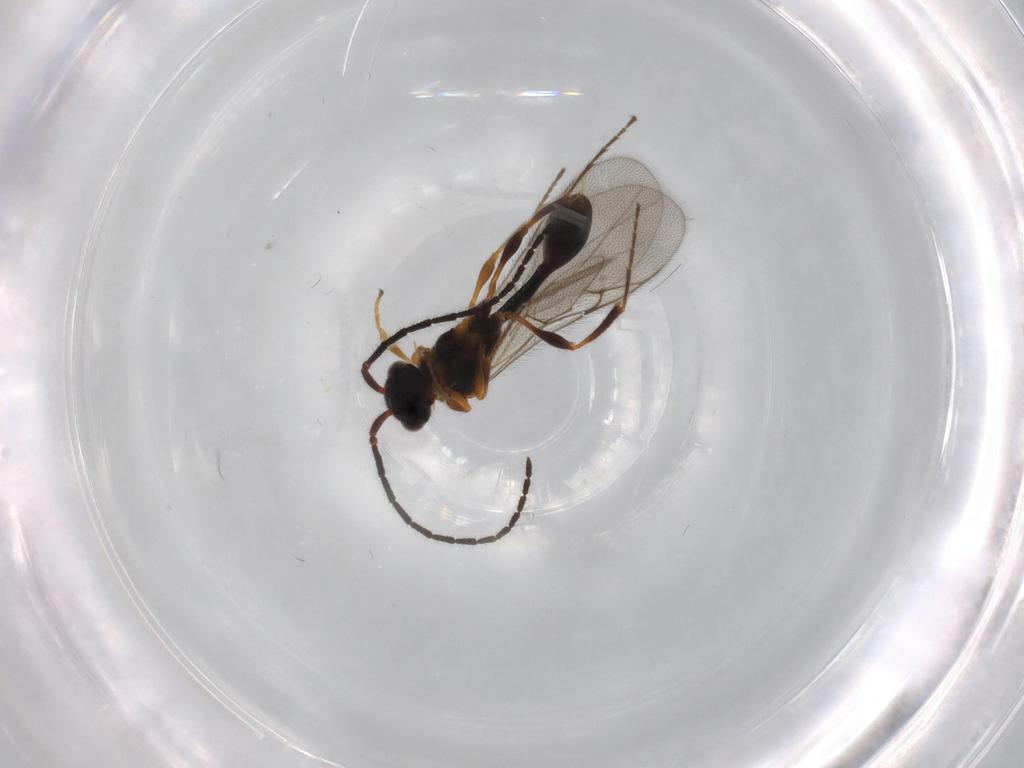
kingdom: Animalia
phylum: Arthropoda
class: Insecta
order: Hymenoptera
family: Diapriidae
